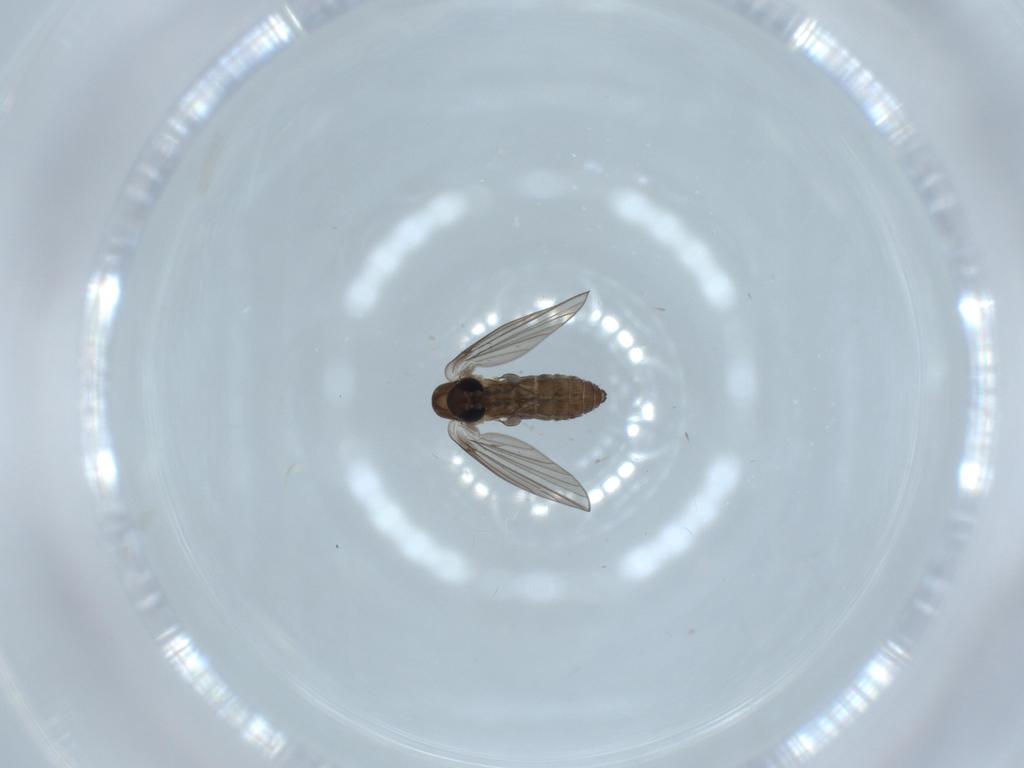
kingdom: Animalia
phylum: Arthropoda
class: Insecta
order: Diptera
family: Psychodidae
